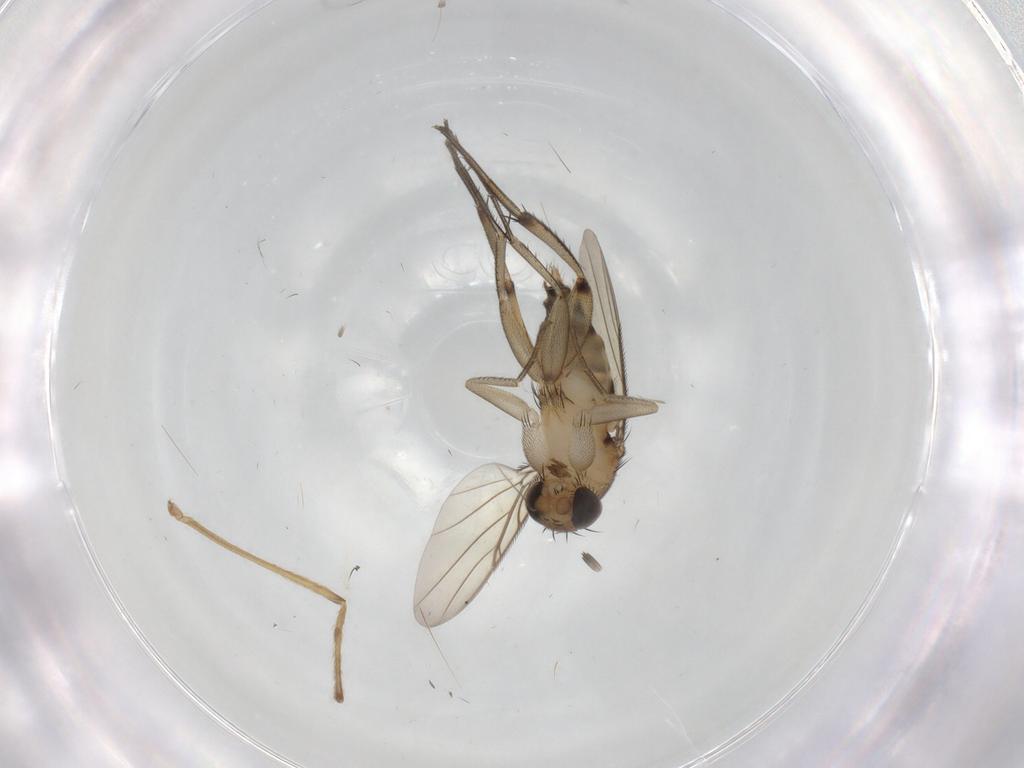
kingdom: Animalia
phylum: Arthropoda
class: Insecta
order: Diptera
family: Phoridae
